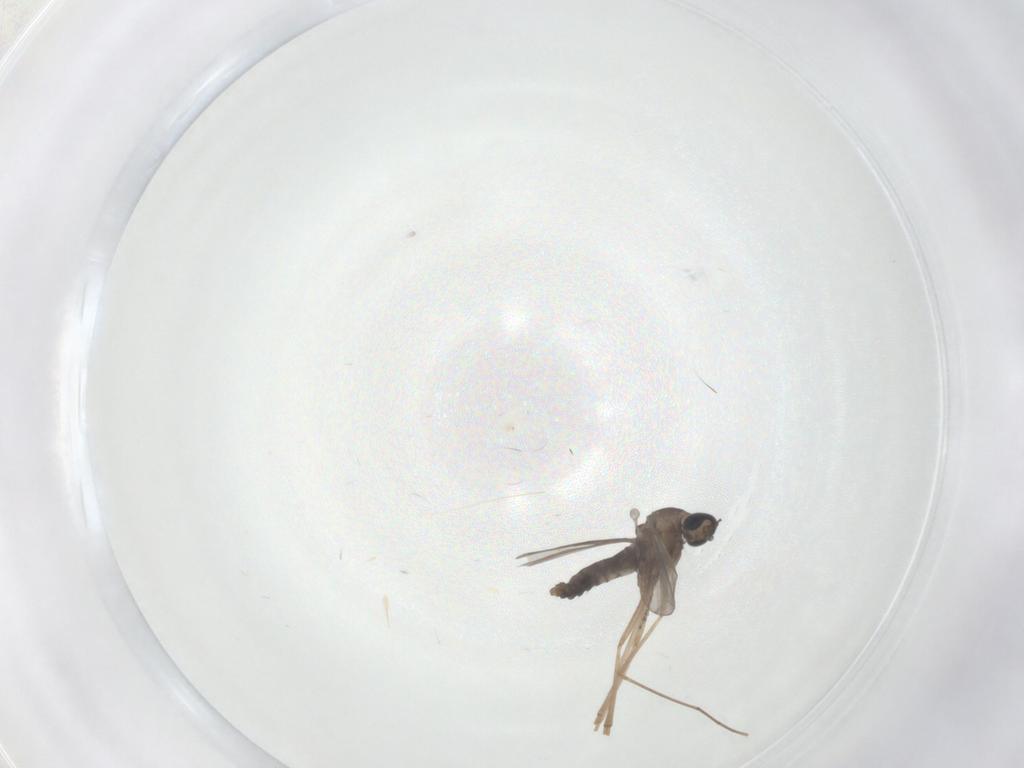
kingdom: Animalia
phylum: Arthropoda
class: Insecta
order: Diptera
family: Cecidomyiidae
